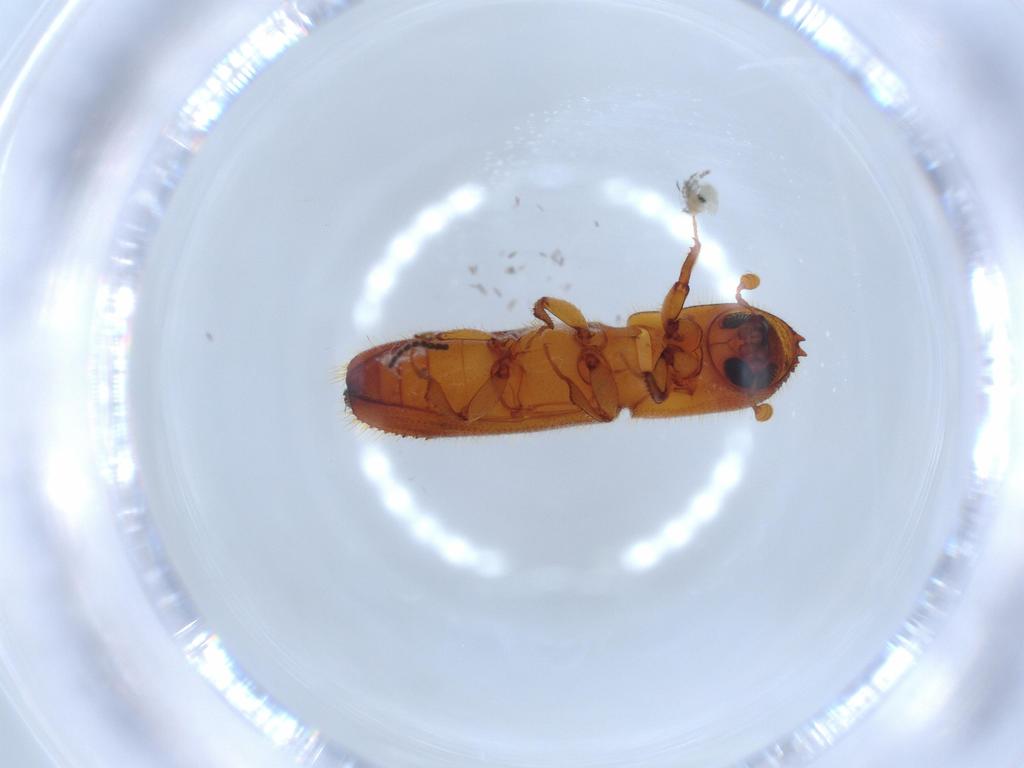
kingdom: Animalia
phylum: Arthropoda
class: Insecta
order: Coleoptera
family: Curculionidae
